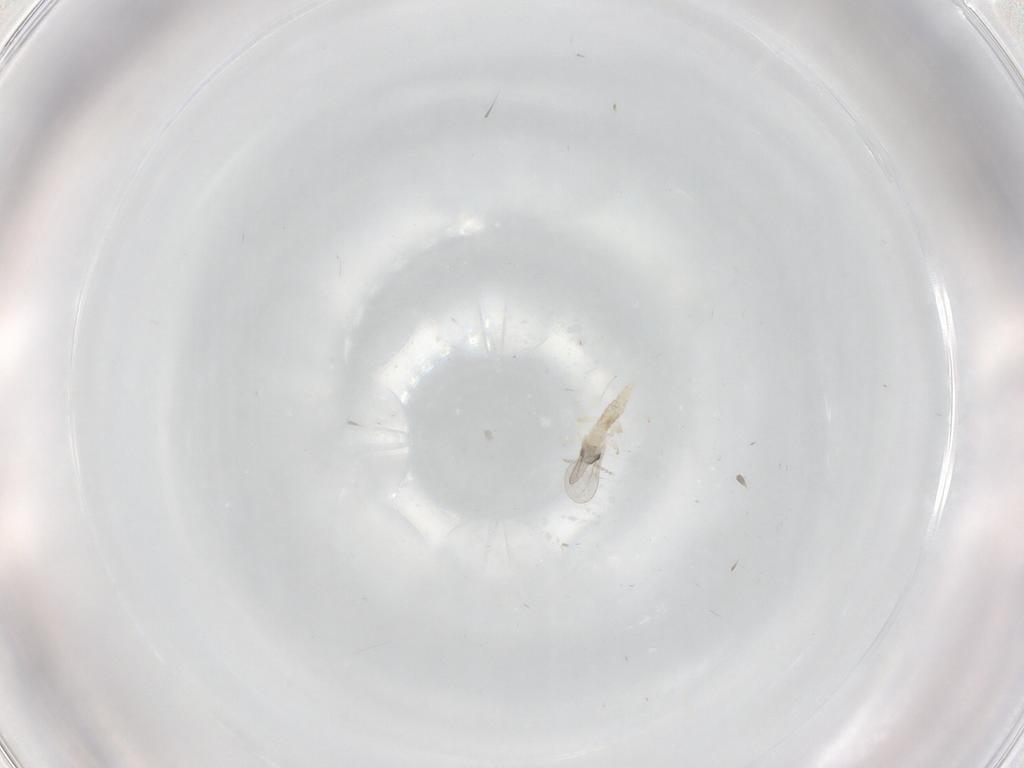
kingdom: Animalia
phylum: Arthropoda
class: Insecta
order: Diptera
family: Cecidomyiidae
